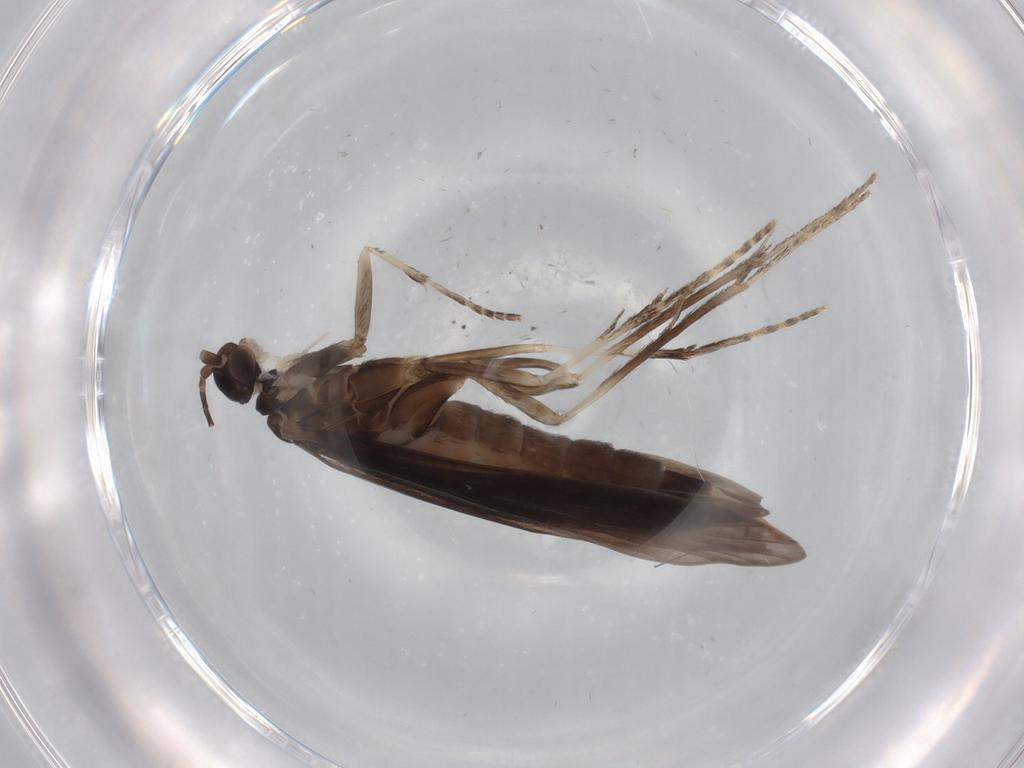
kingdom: Animalia
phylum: Arthropoda
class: Insecta
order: Trichoptera
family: Xiphocentronidae
